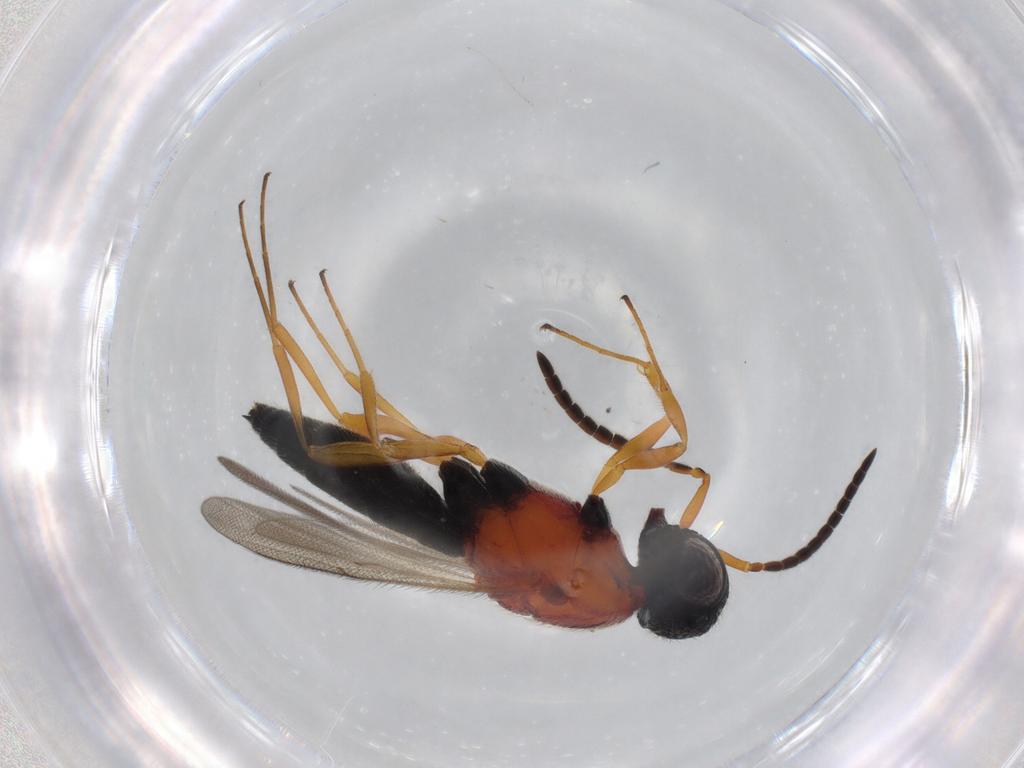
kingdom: Animalia
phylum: Arthropoda
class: Insecta
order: Hymenoptera
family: Scelionidae
